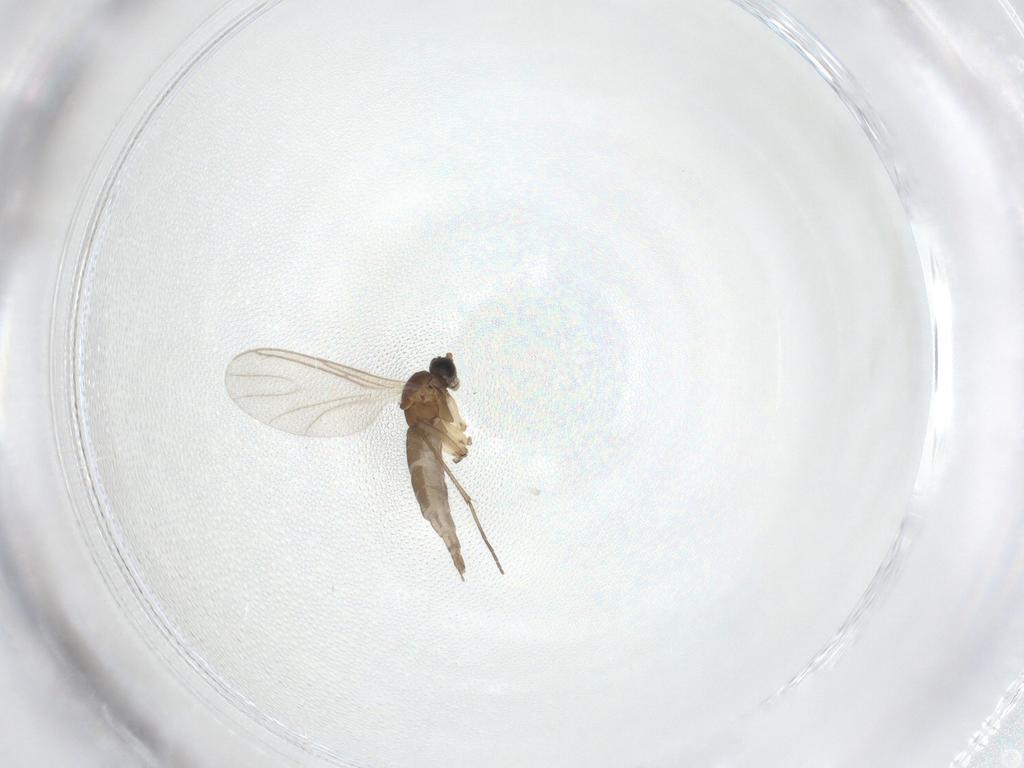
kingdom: Animalia
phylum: Arthropoda
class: Insecta
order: Diptera
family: Sciaridae
